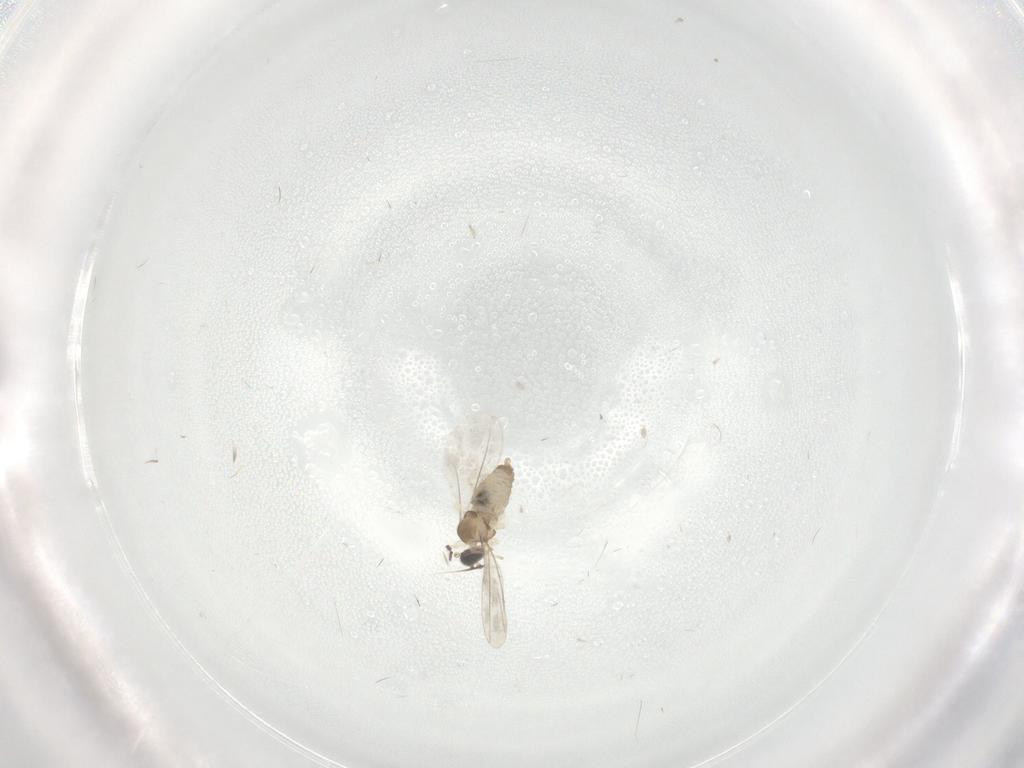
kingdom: Animalia
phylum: Arthropoda
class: Insecta
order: Diptera
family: Cecidomyiidae
